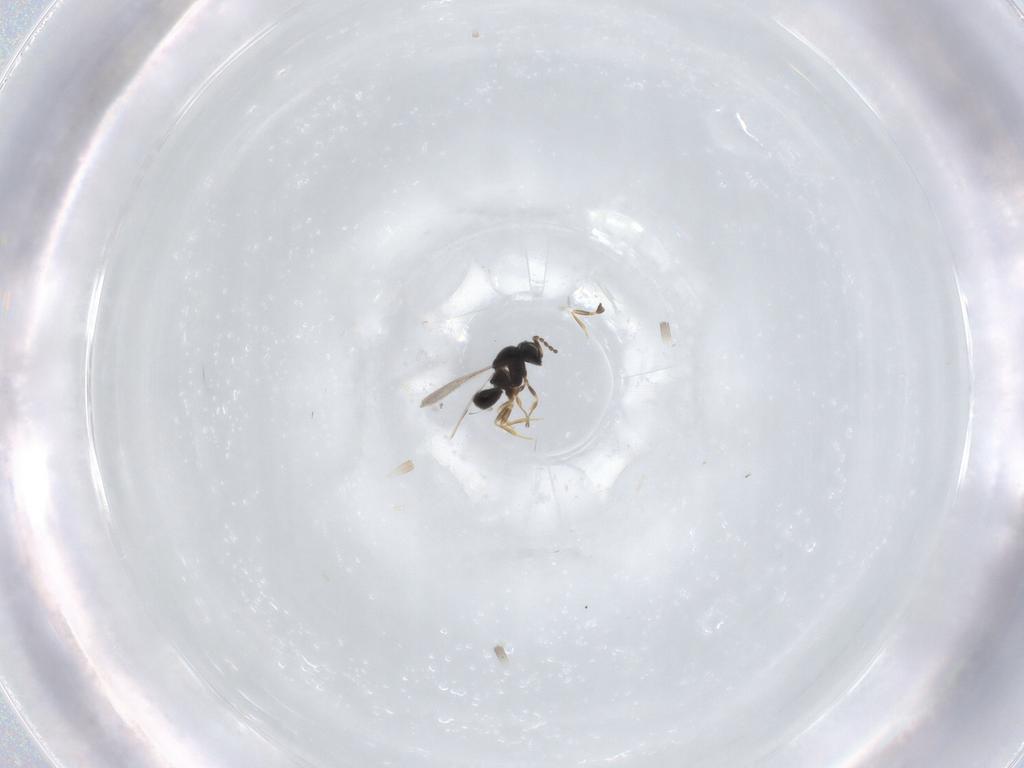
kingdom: Animalia
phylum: Arthropoda
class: Insecta
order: Hymenoptera
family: Scelionidae
